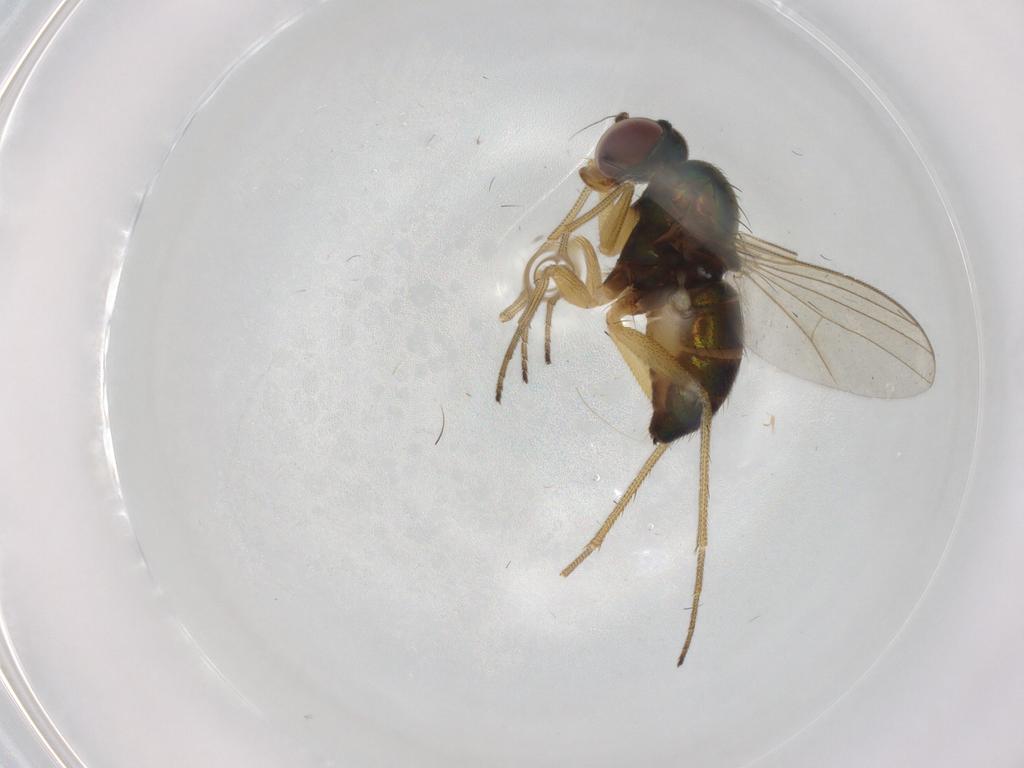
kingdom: Animalia
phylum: Arthropoda
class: Insecta
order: Diptera
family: Dolichopodidae
